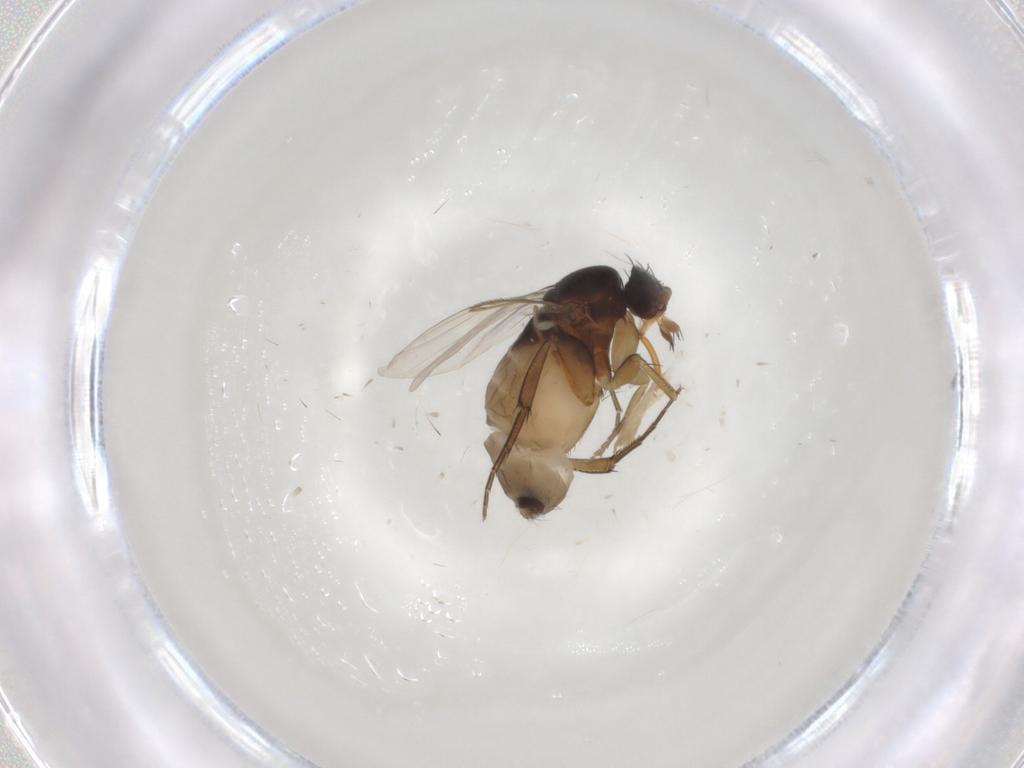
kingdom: Animalia
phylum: Arthropoda
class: Insecta
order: Diptera
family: Phoridae
